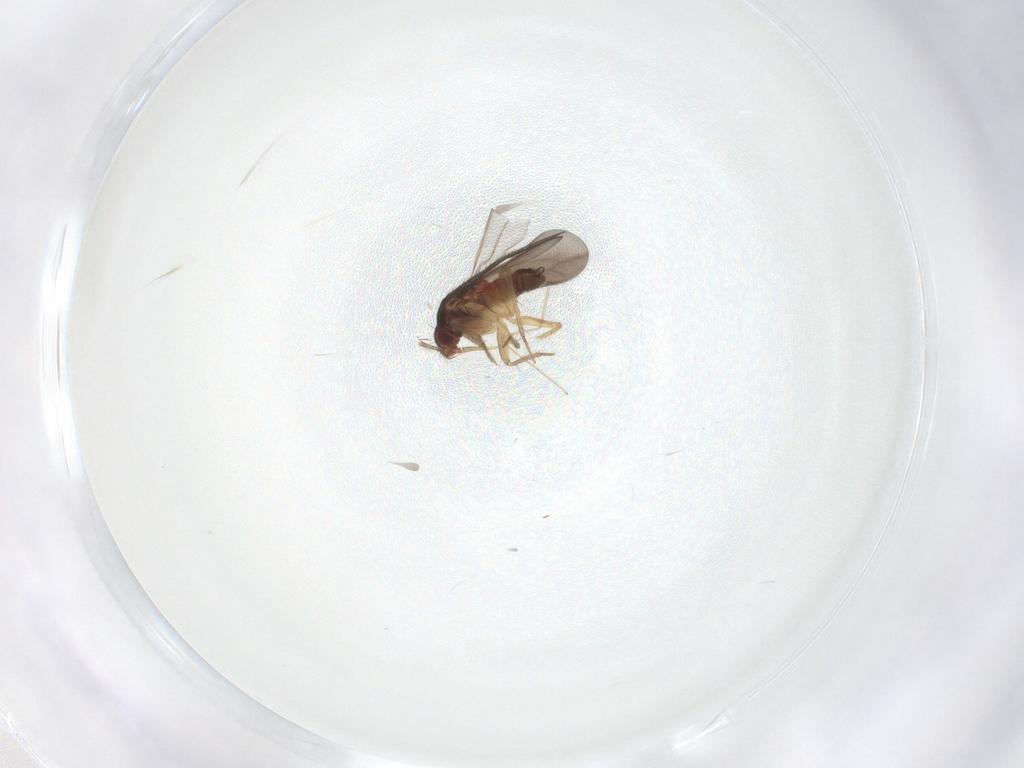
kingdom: Animalia
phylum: Arthropoda
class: Insecta
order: Hemiptera
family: Ceratocombidae
